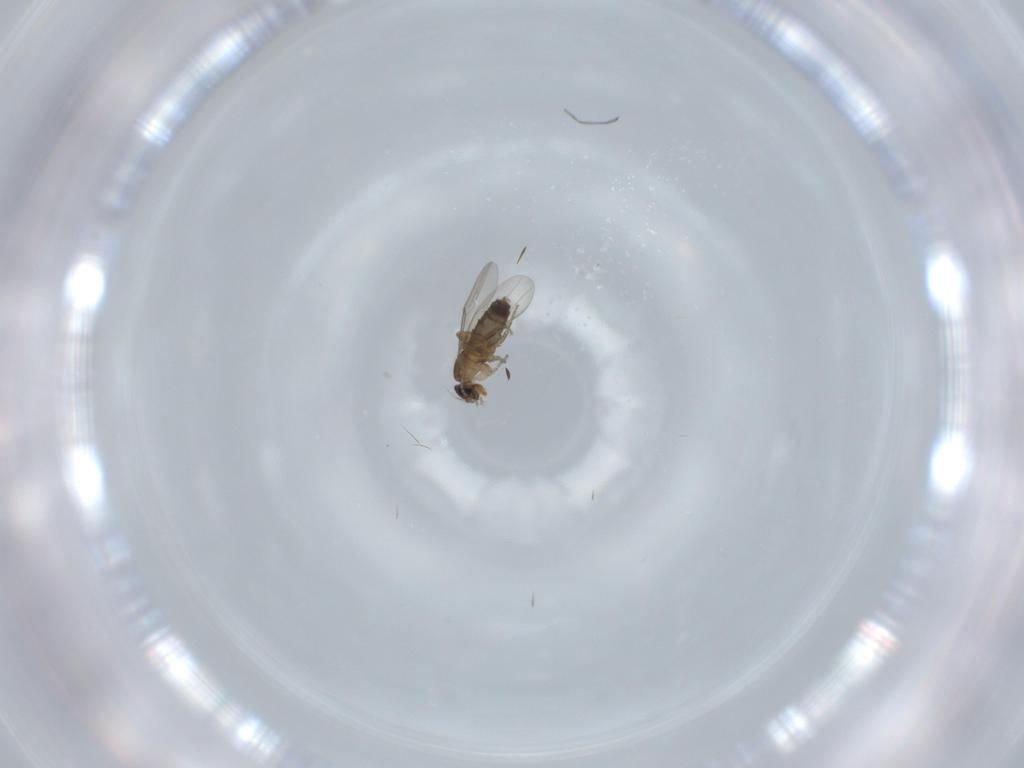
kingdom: Animalia
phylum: Arthropoda
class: Insecta
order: Diptera
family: Phoridae
